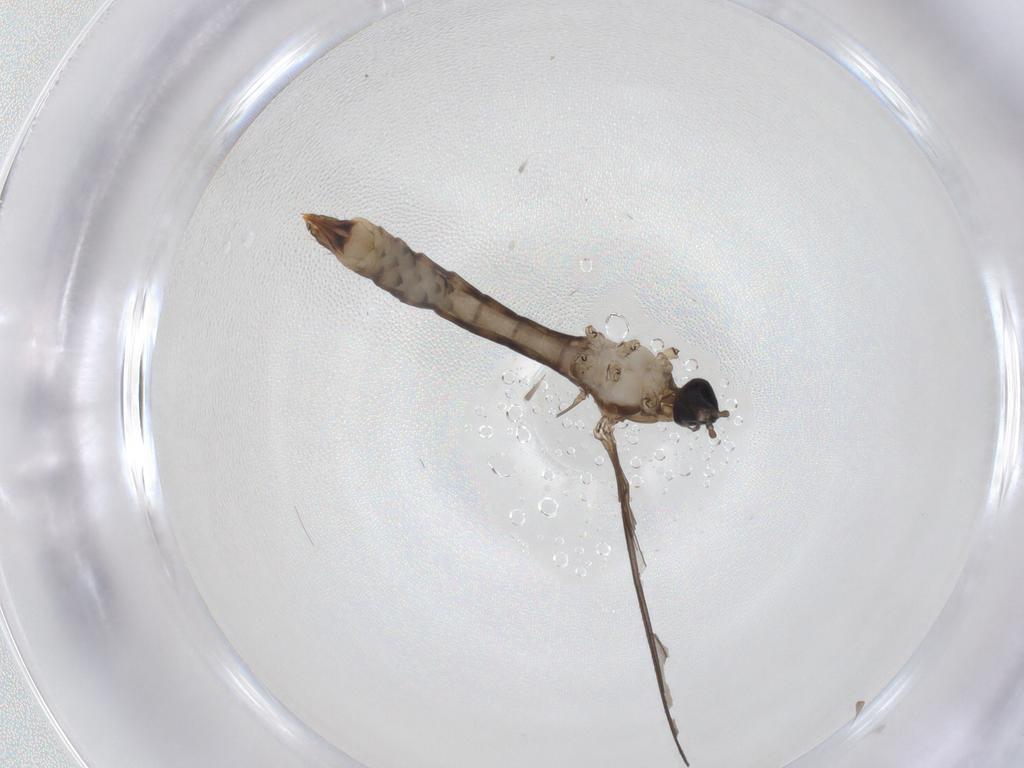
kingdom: Animalia
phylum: Arthropoda
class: Insecta
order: Diptera
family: Limoniidae
